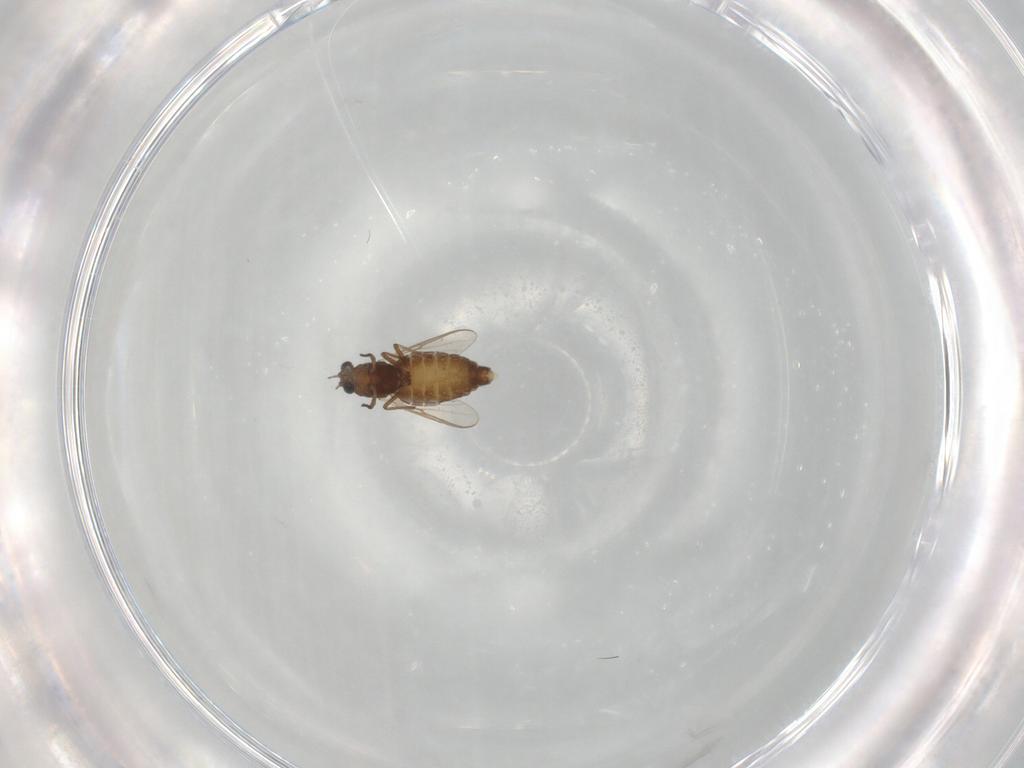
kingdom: Animalia
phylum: Arthropoda
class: Insecta
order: Diptera
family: Chironomidae
